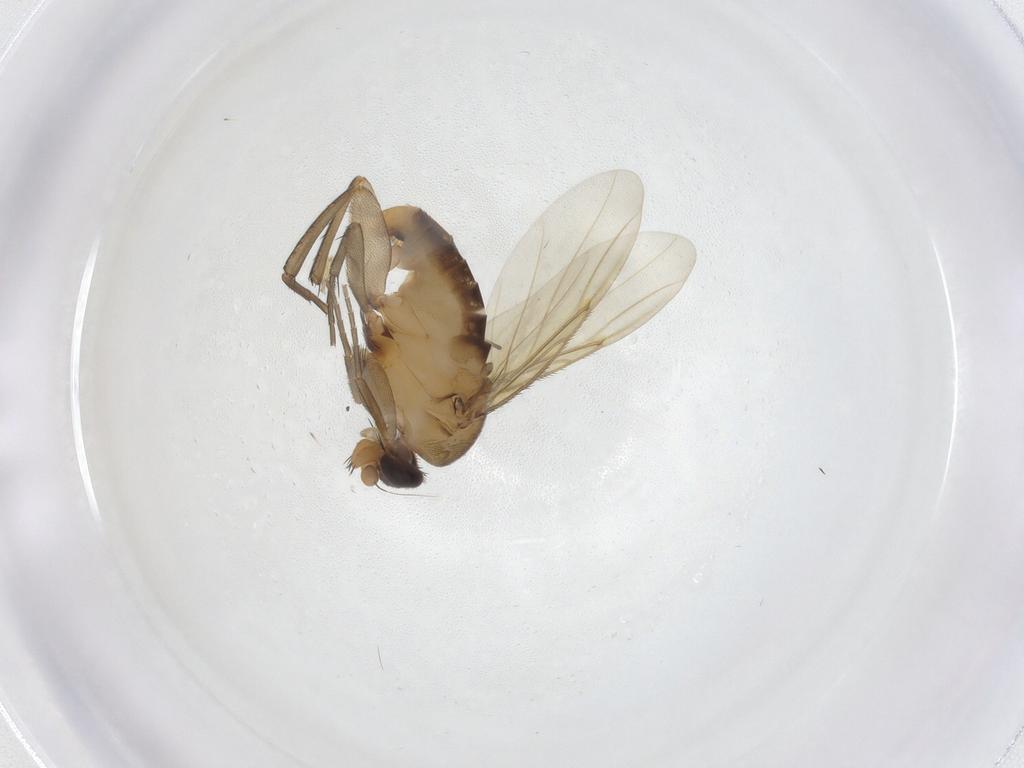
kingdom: Animalia
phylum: Arthropoda
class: Insecta
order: Diptera
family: Phoridae
